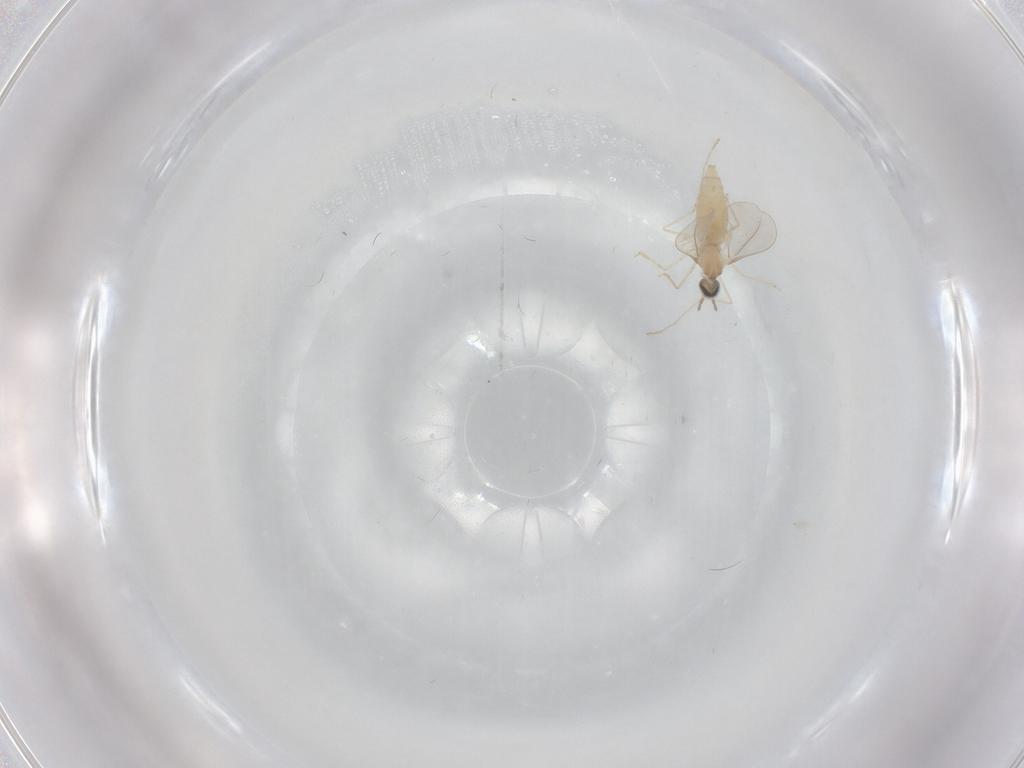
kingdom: Animalia
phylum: Arthropoda
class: Insecta
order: Diptera
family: Cecidomyiidae
